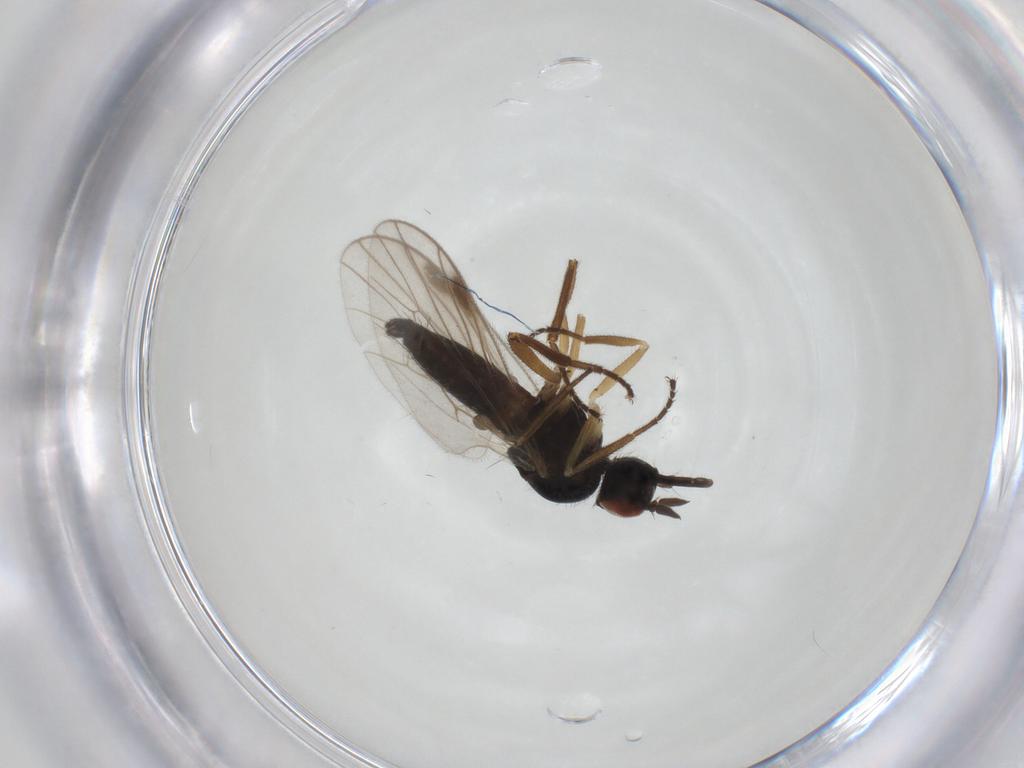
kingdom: Animalia
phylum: Arthropoda
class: Insecta
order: Diptera
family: Hybotidae
